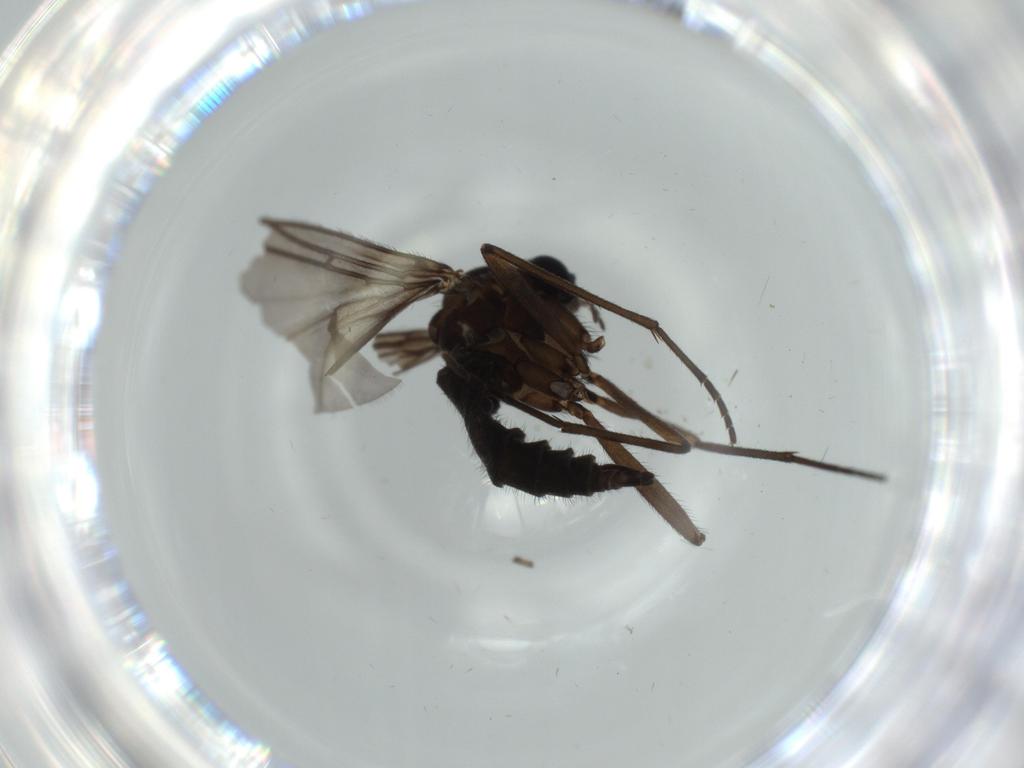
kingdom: Animalia
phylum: Arthropoda
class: Insecta
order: Diptera
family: Sciaridae
